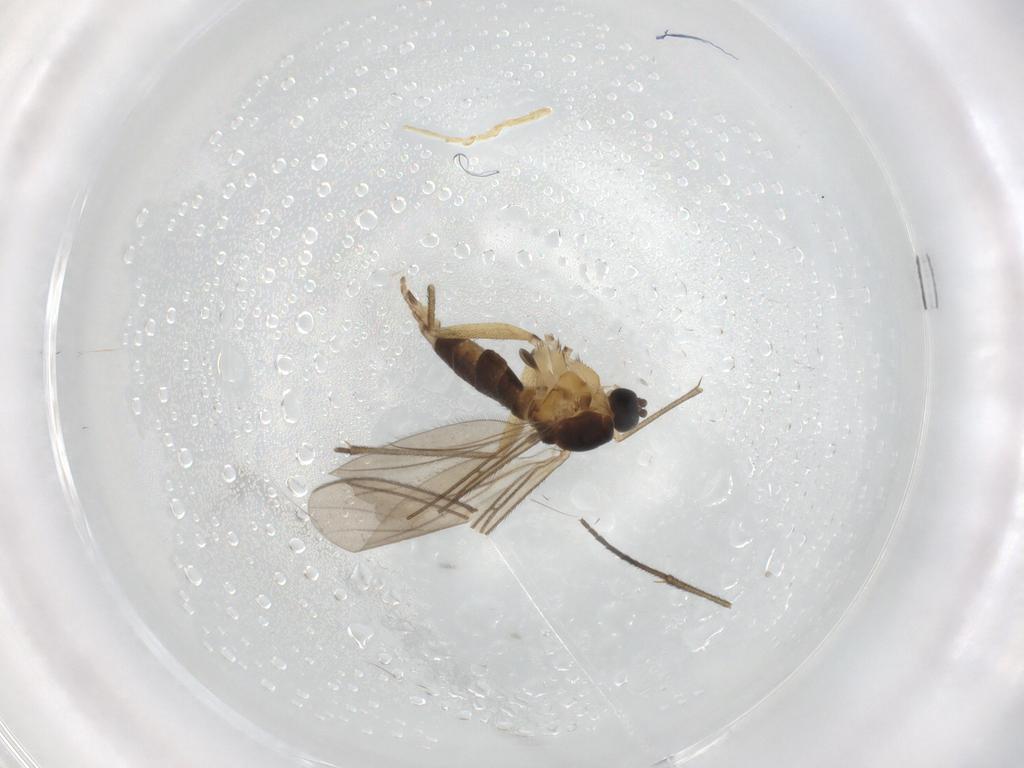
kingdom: Animalia
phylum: Arthropoda
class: Insecta
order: Diptera
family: Sciaridae
